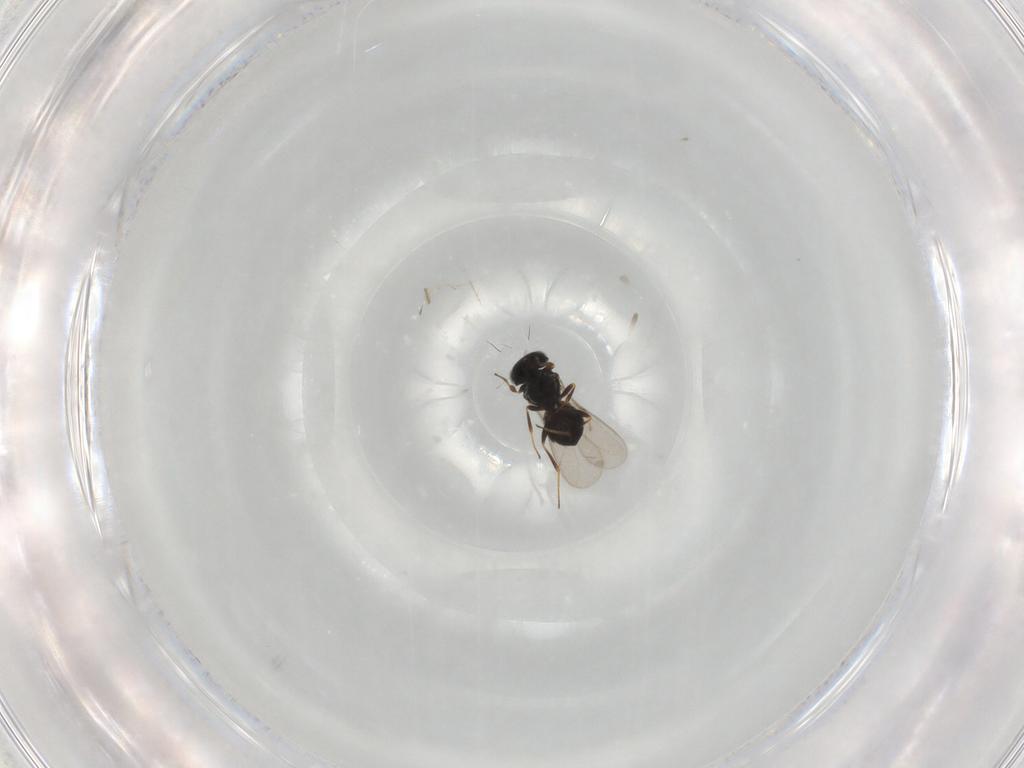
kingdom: Animalia
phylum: Arthropoda
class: Insecta
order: Hymenoptera
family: Scelionidae
